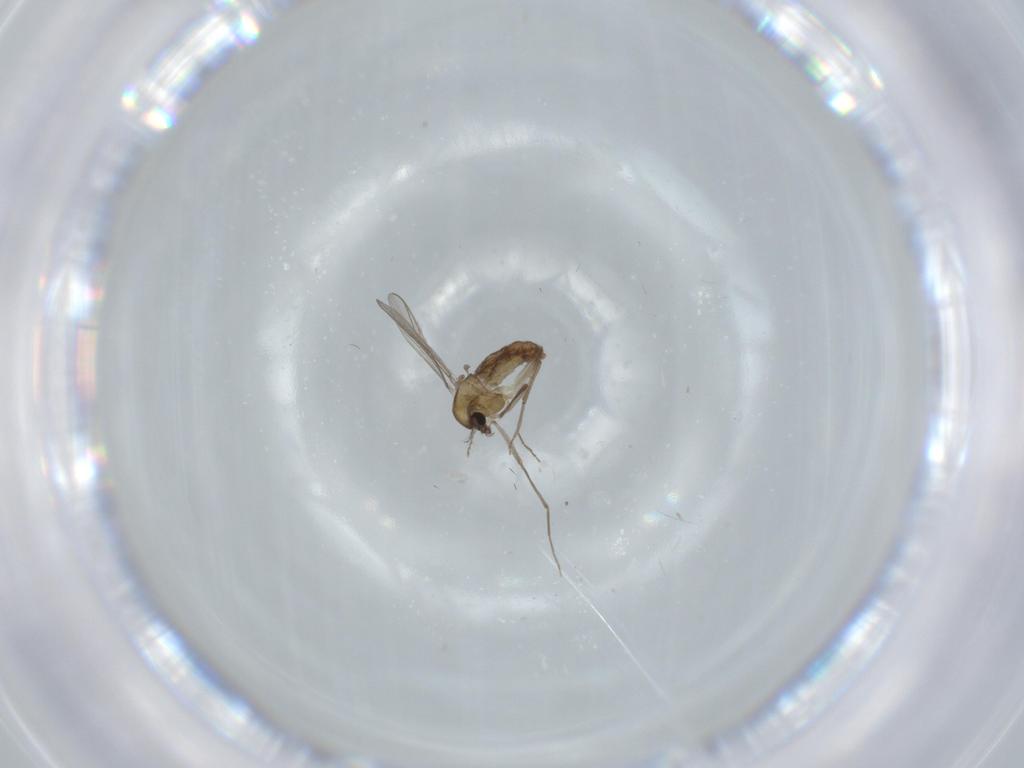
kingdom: Animalia
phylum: Arthropoda
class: Insecta
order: Diptera
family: Chironomidae
